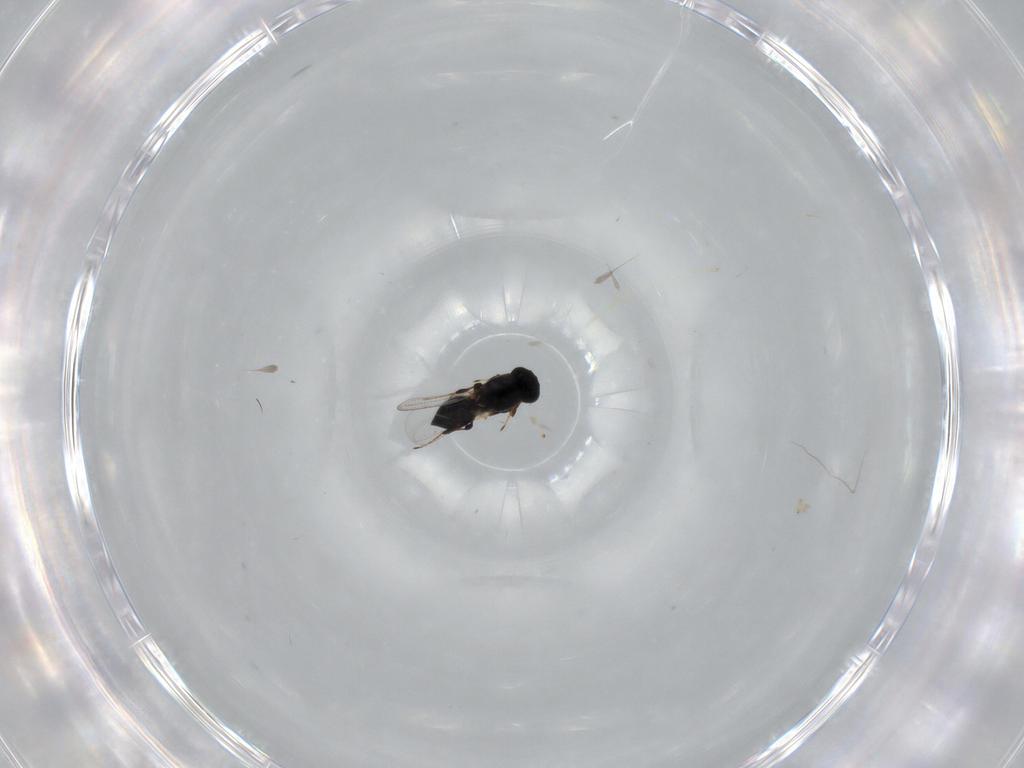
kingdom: Animalia
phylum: Arthropoda
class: Insecta
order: Hymenoptera
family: Platygastridae
